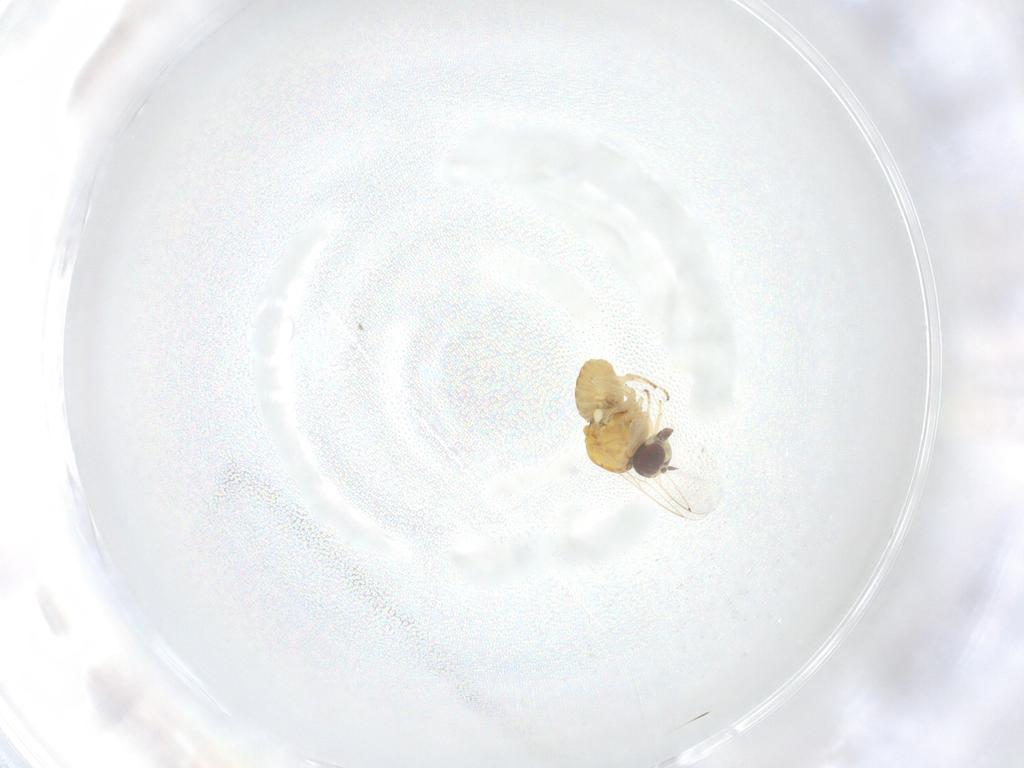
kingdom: Animalia
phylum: Arthropoda
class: Insecta
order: Diptera
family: Bombyliidae
